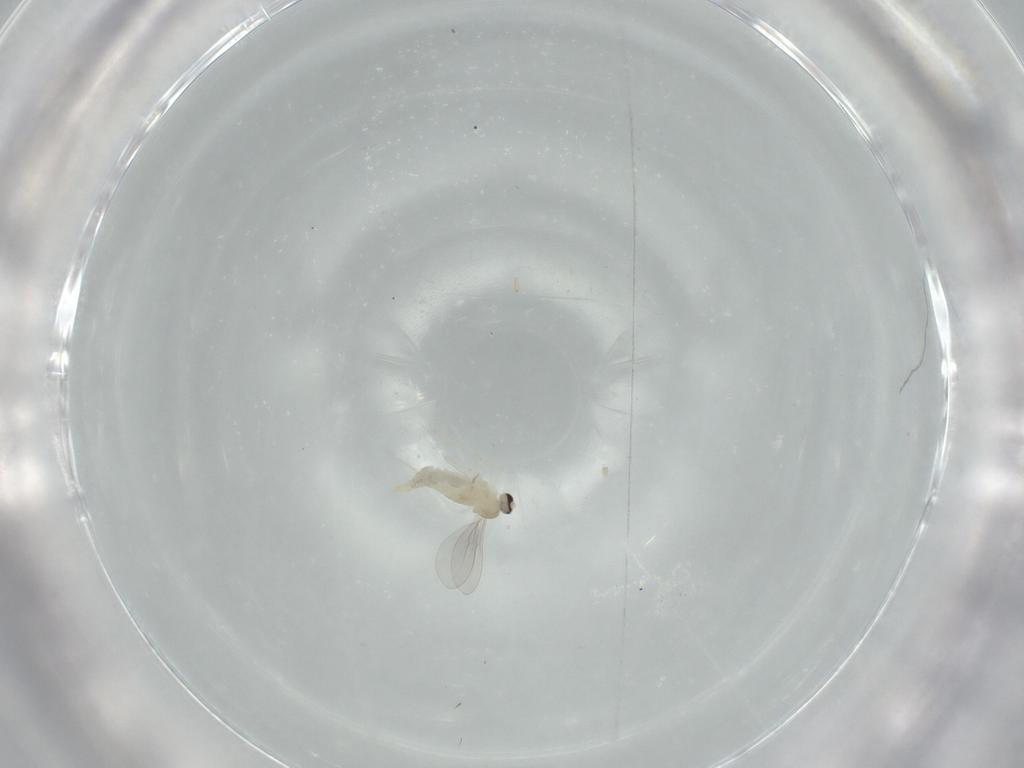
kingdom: Animalia
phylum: Arthropoda
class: Insecta
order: Diptera
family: Cecidomyiidae
